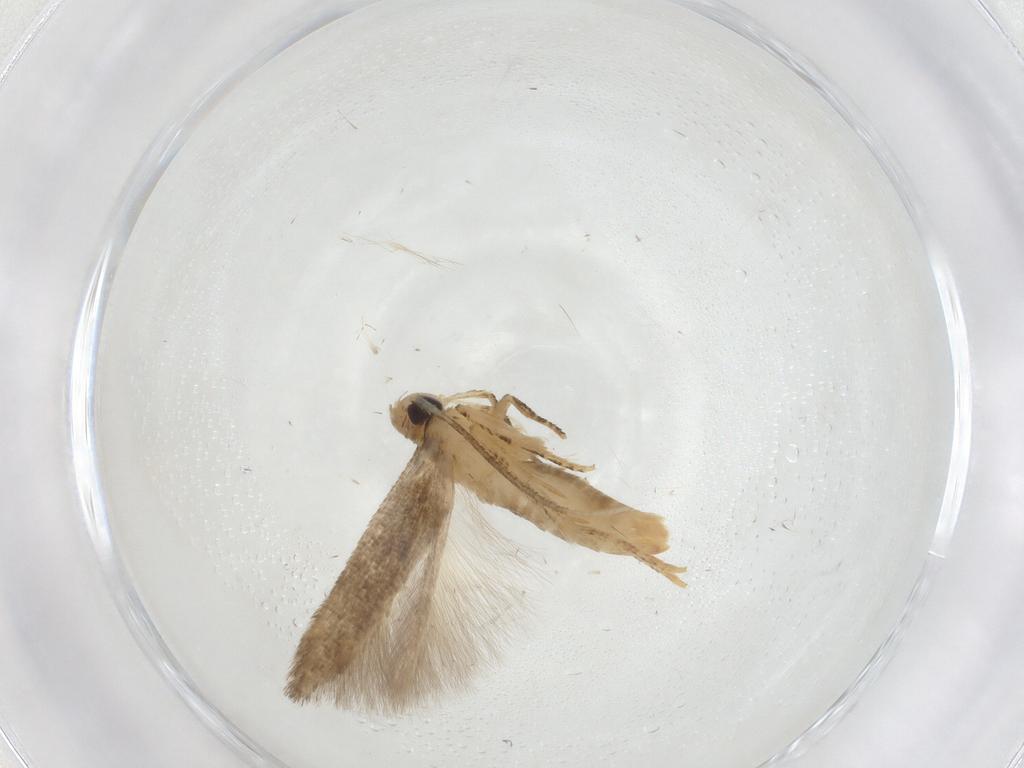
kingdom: Animalia
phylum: Arthropoda
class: Insecta
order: Lepidoptera
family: Cosmopterigidae
